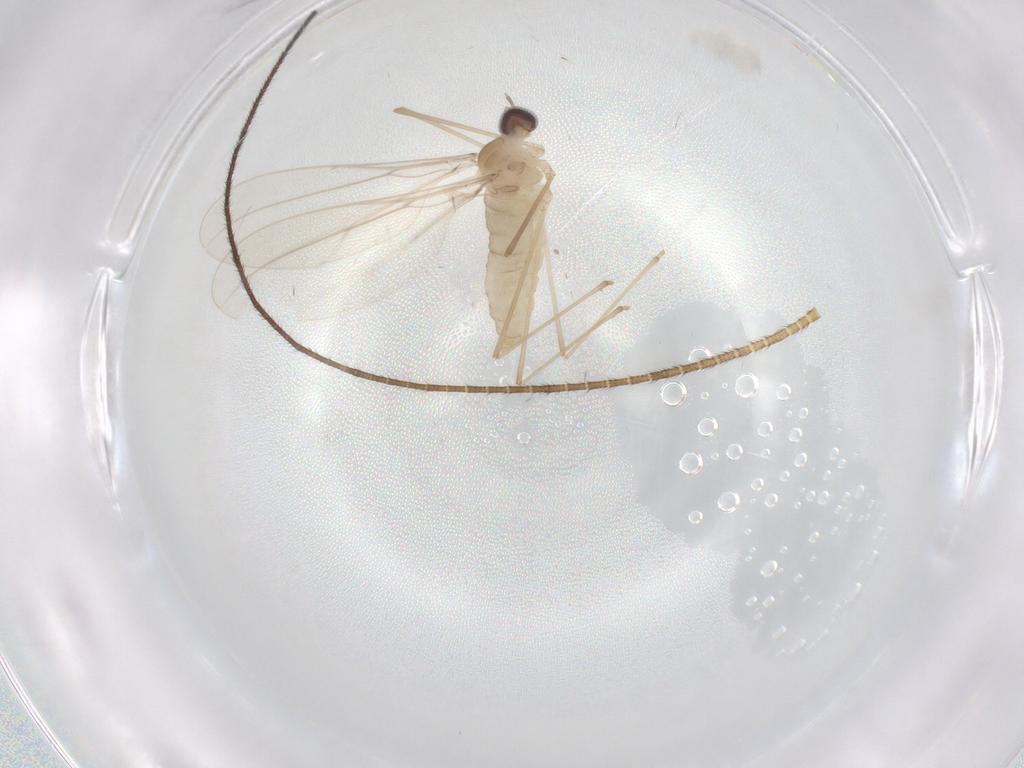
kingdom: Animalia
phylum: Arthropoda
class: Insecta
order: Diptera
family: Cecidomyiidae
